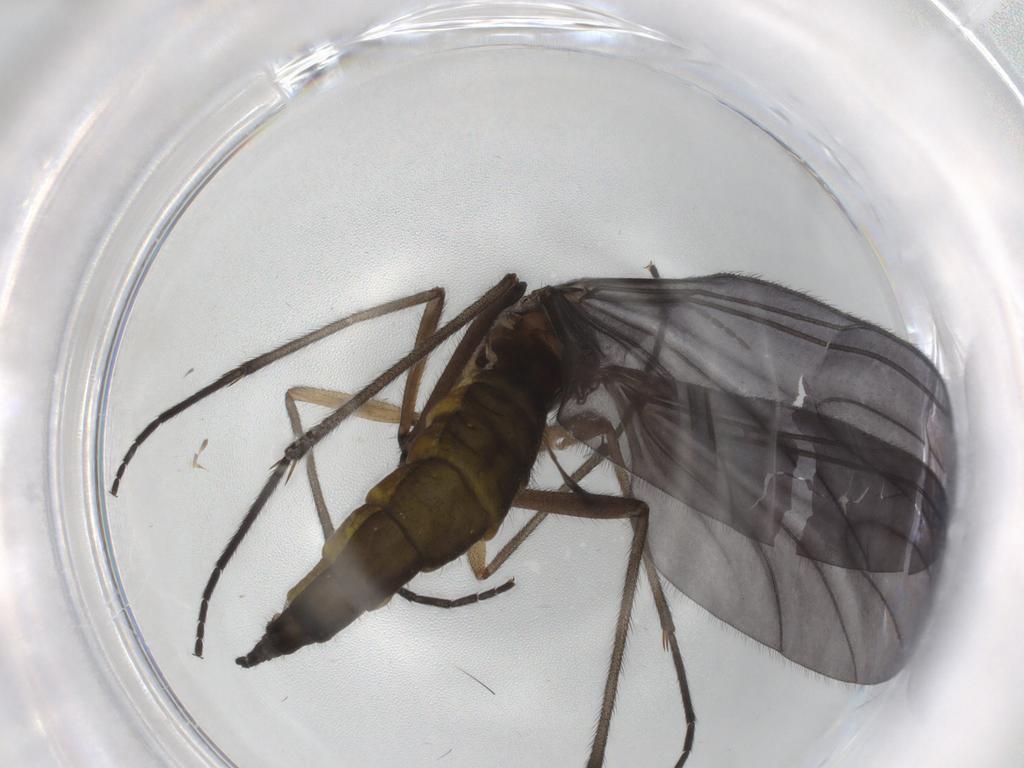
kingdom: Animalia
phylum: Arthropoda
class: Insecta
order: Diptera
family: Sciaridae
